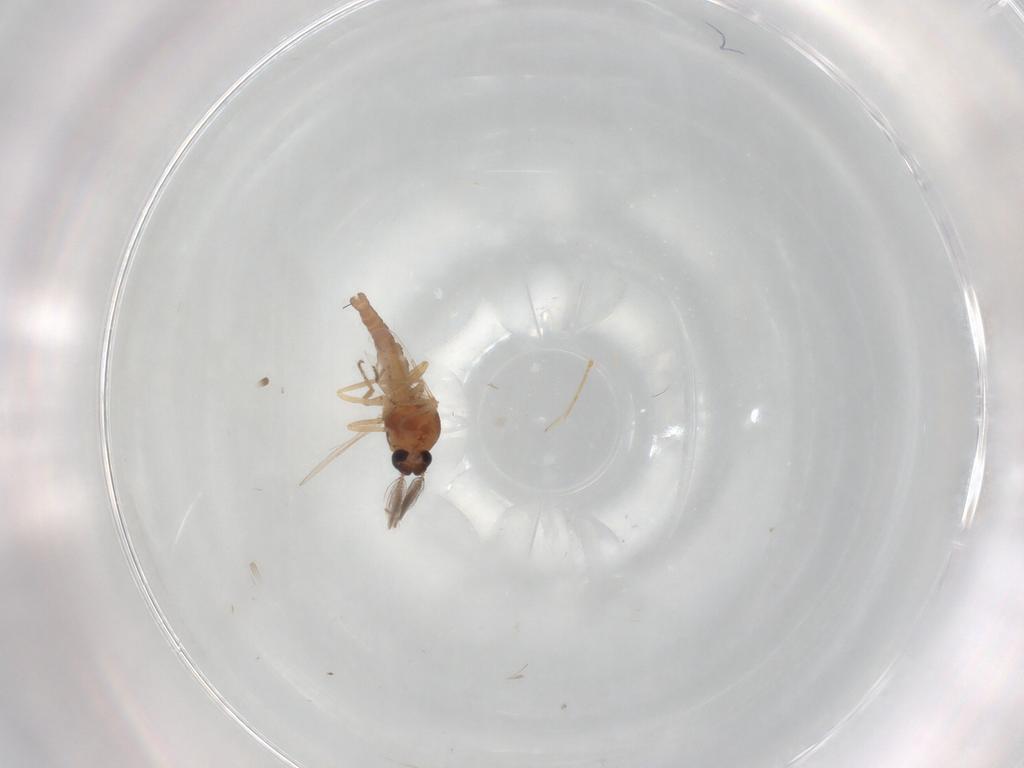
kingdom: Animalia
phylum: Arthropoda
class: Insecta
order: Diptera
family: Ceratopogonidae
